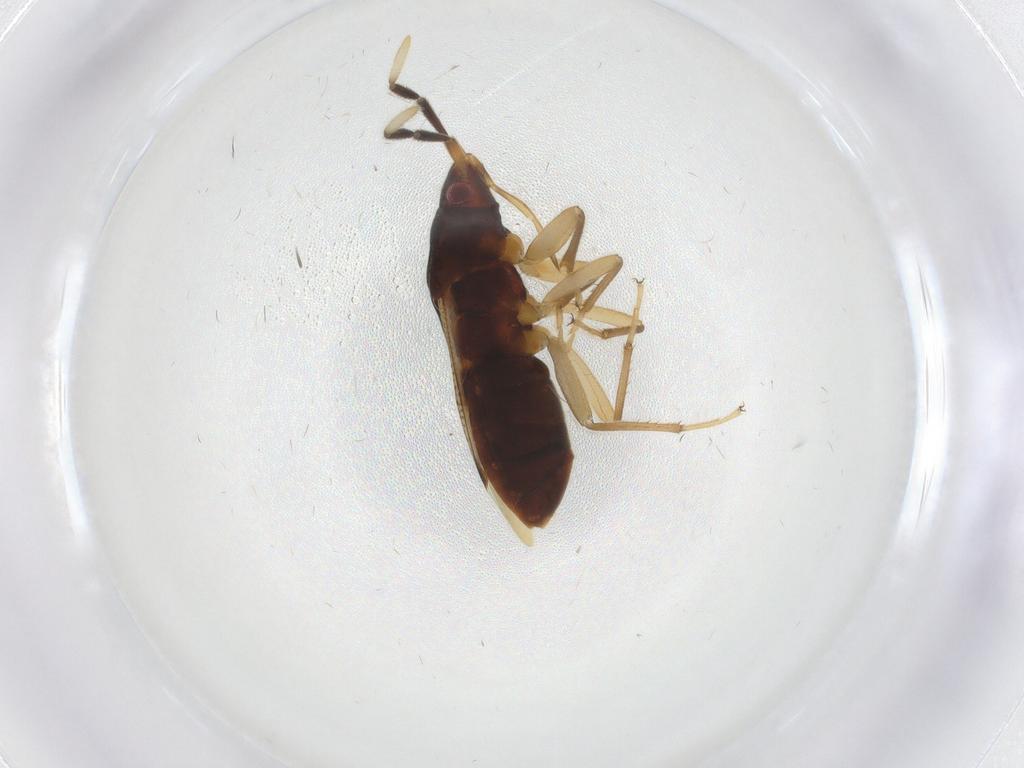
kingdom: Animalia
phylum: Arthropoda
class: Insecta
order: Hemiptera
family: Rhyparochromidae
